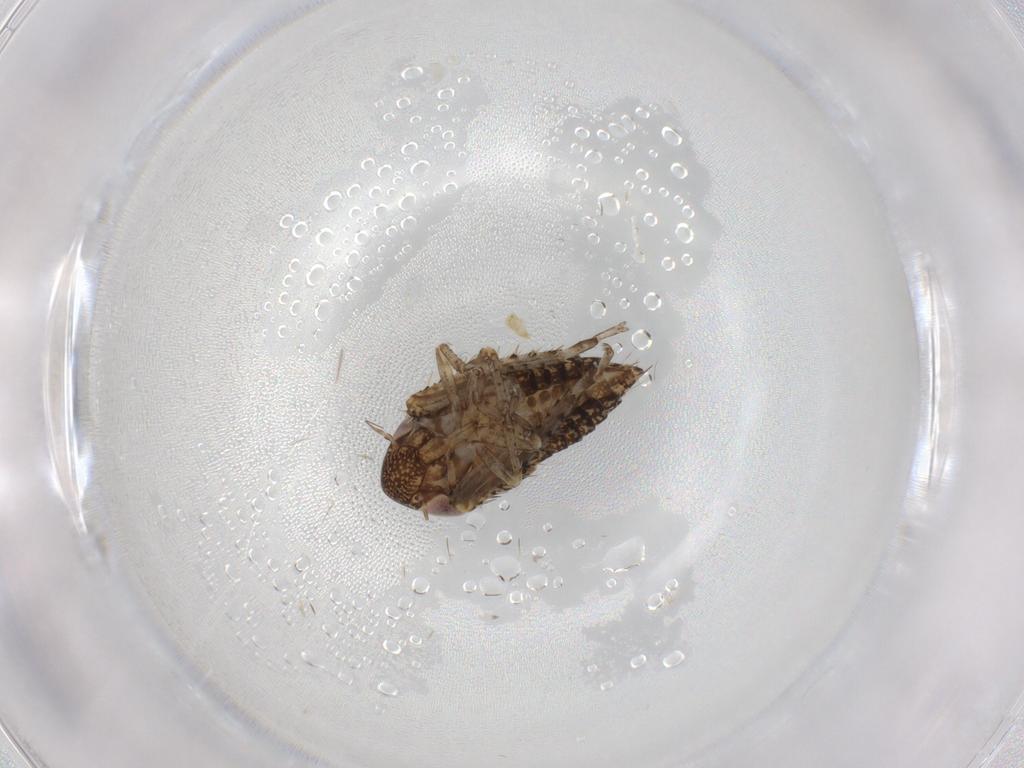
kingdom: Animalia
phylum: Arthropoda
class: Insecta
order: Hemiptera
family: Cicadellidae
